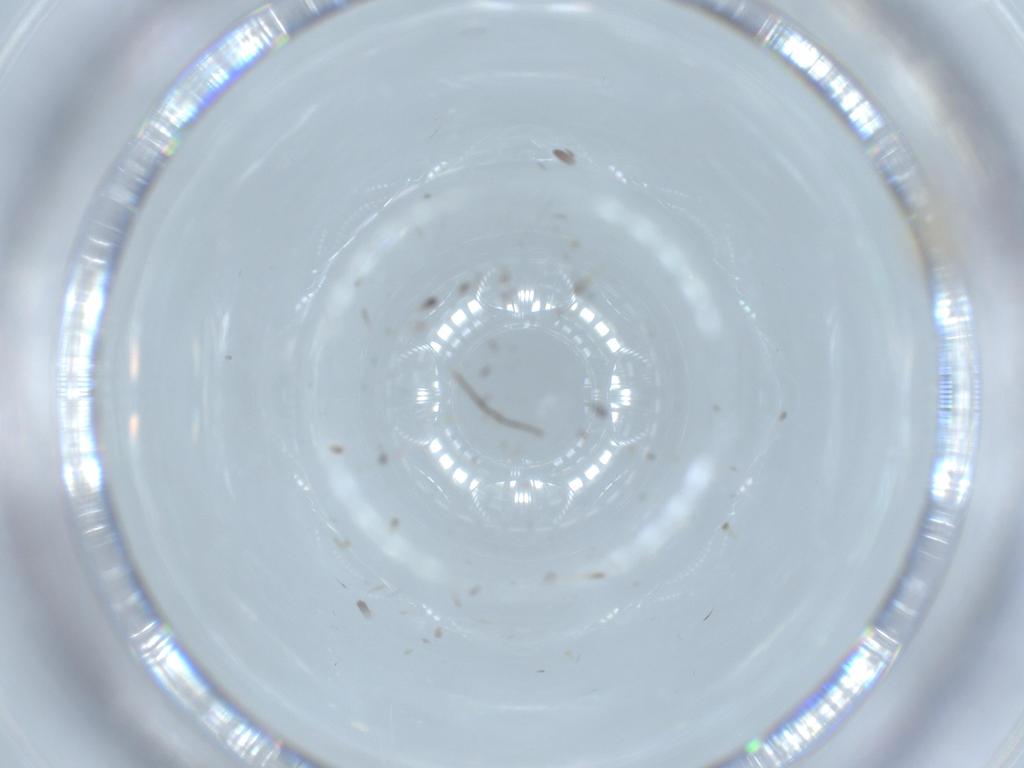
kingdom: Animalia
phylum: Arthropoda
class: Insecta
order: Diptera
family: Cecidomyiidae
